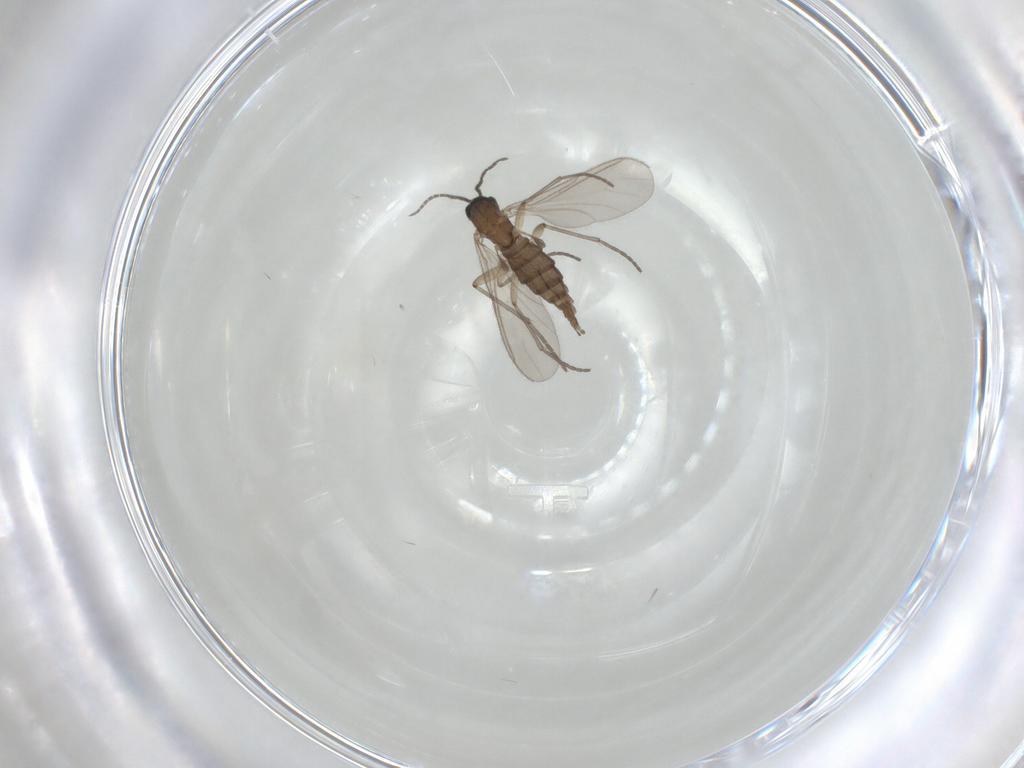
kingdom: Animalia
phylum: Arthropoda
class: Insecta
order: Diptera
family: Sciaridae
